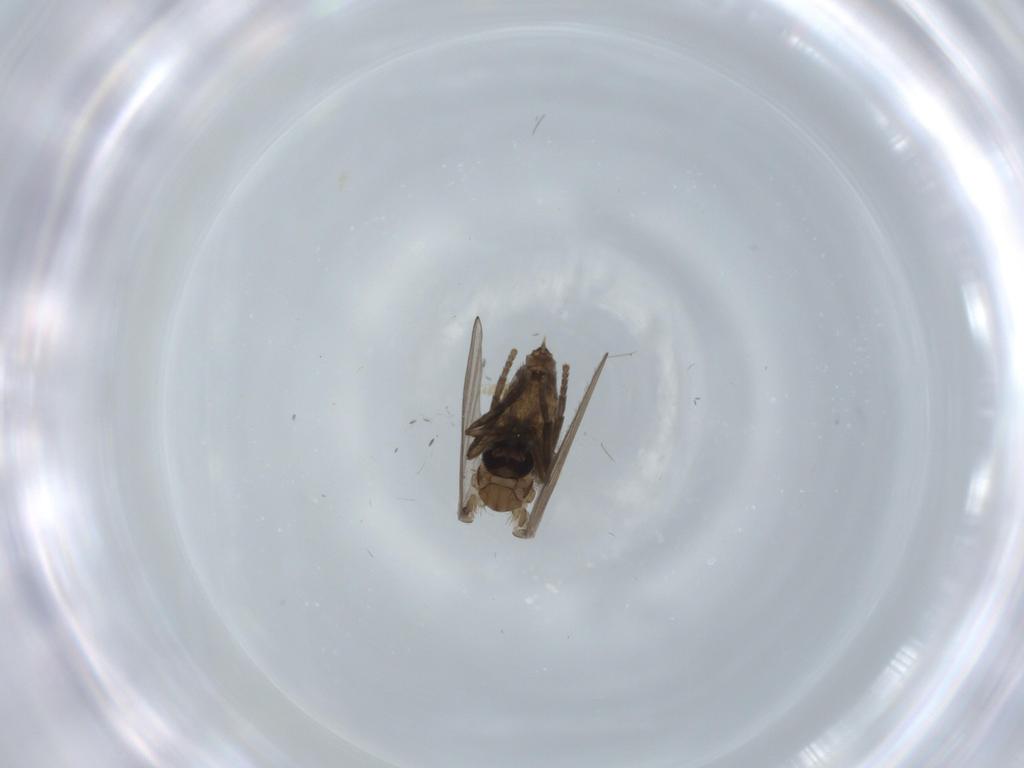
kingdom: Animalia
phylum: Arthropoda
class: Insecta
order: Diptera
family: Psychodidae
